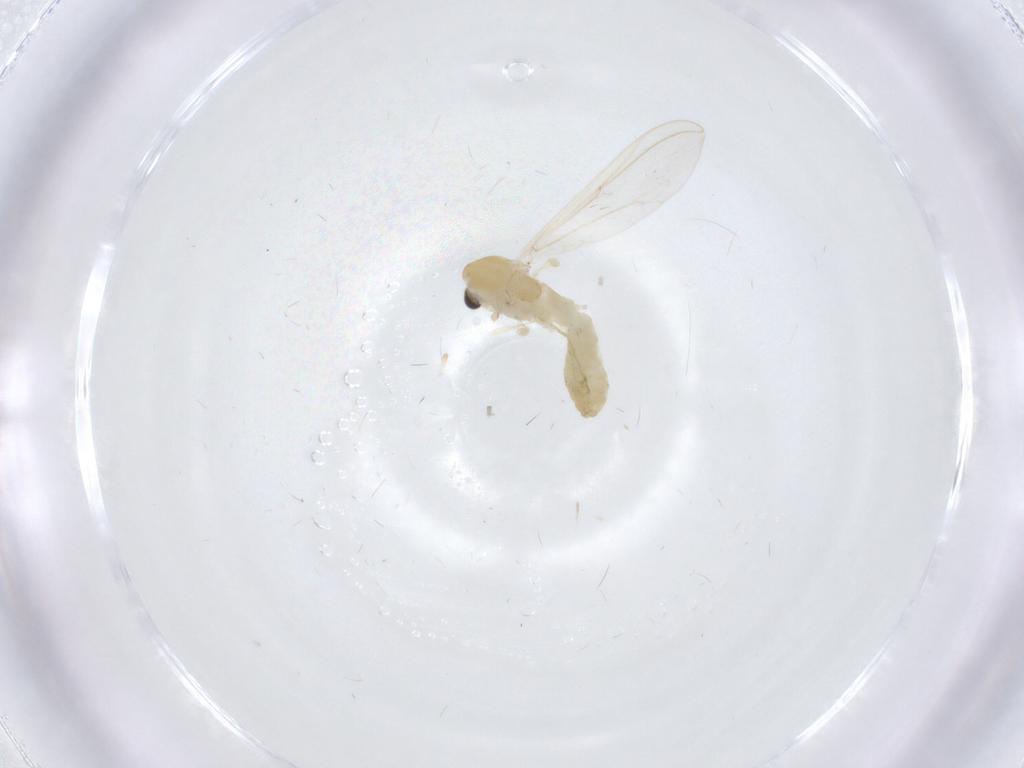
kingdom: Animalia
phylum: Arthropoda
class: Insecta
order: Diptera
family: Chironomidae
